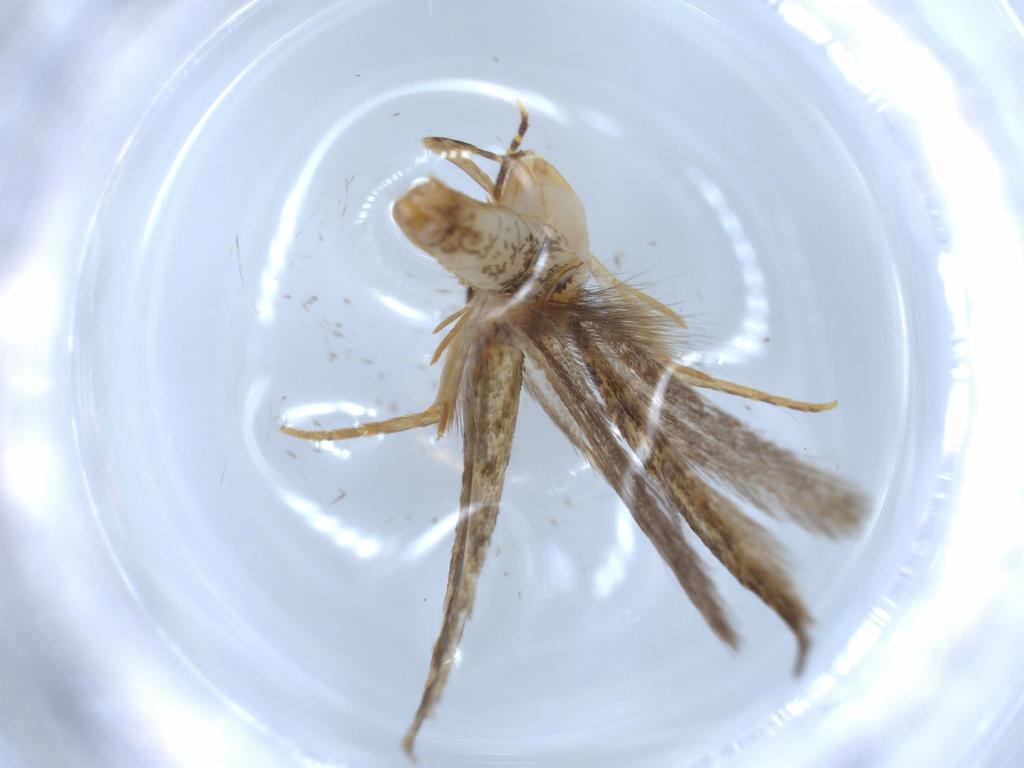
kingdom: Animalia
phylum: Arthropoda
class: Insecta
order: Lepidoptera
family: Tineidae
